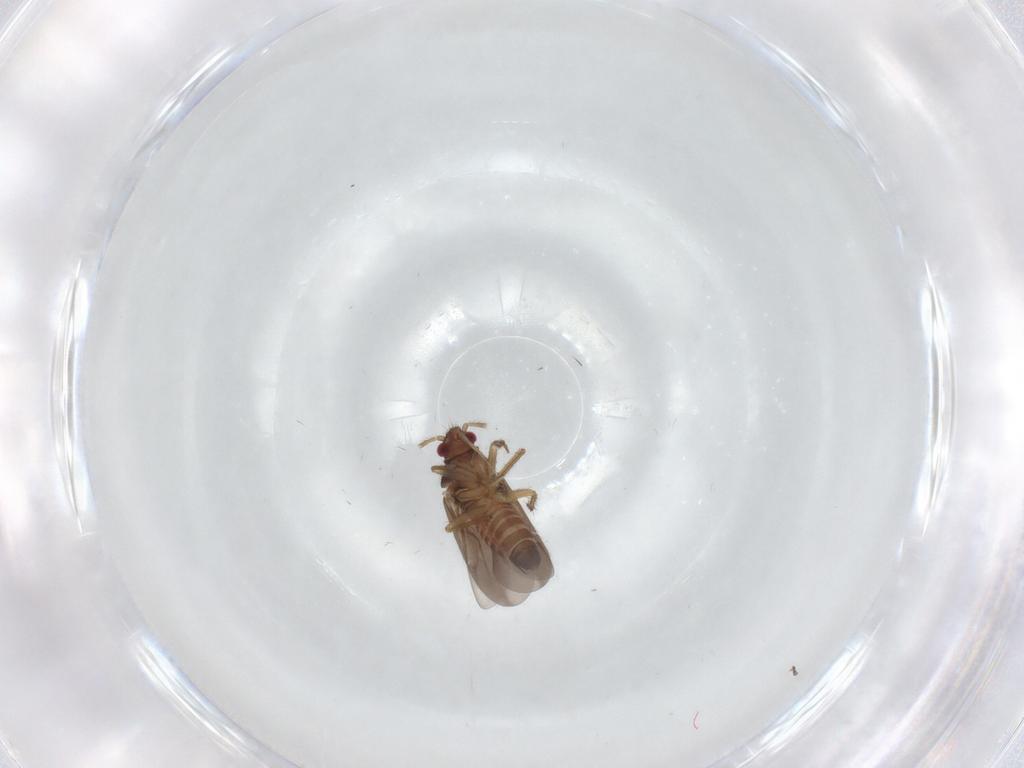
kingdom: Animalia
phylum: Arthropoda
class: Insecta
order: Hemiptera
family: Ceratocombidae
